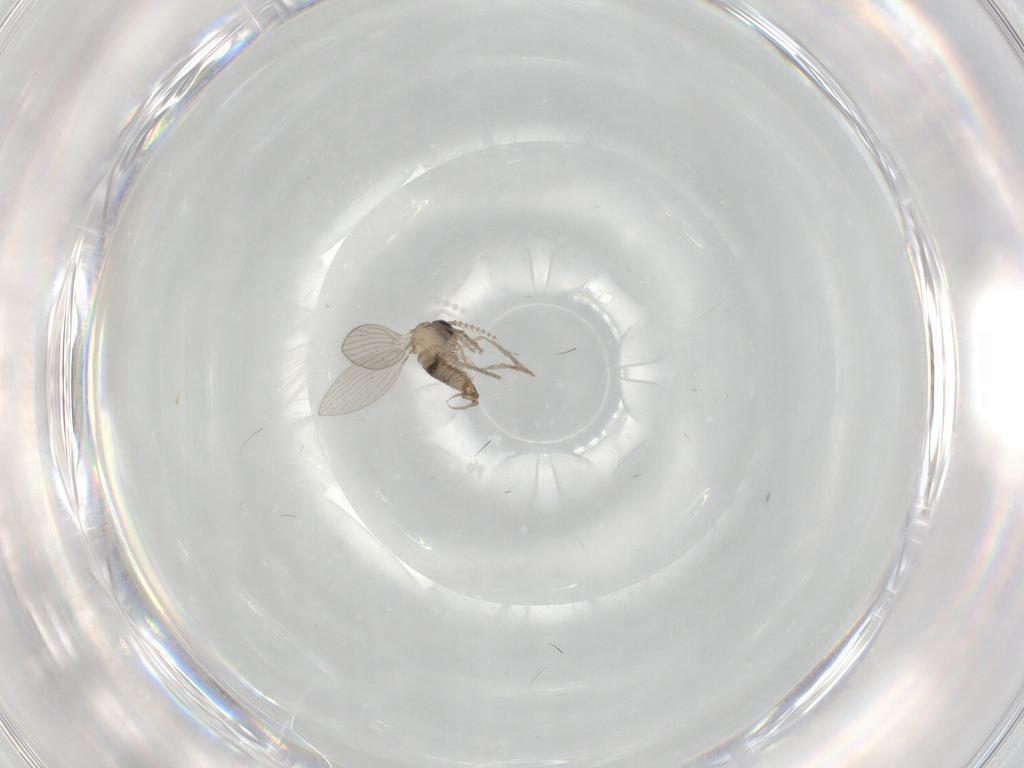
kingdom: Animalia
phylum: Arthropoda
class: Insecta
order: Diptera
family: Psychodidae
